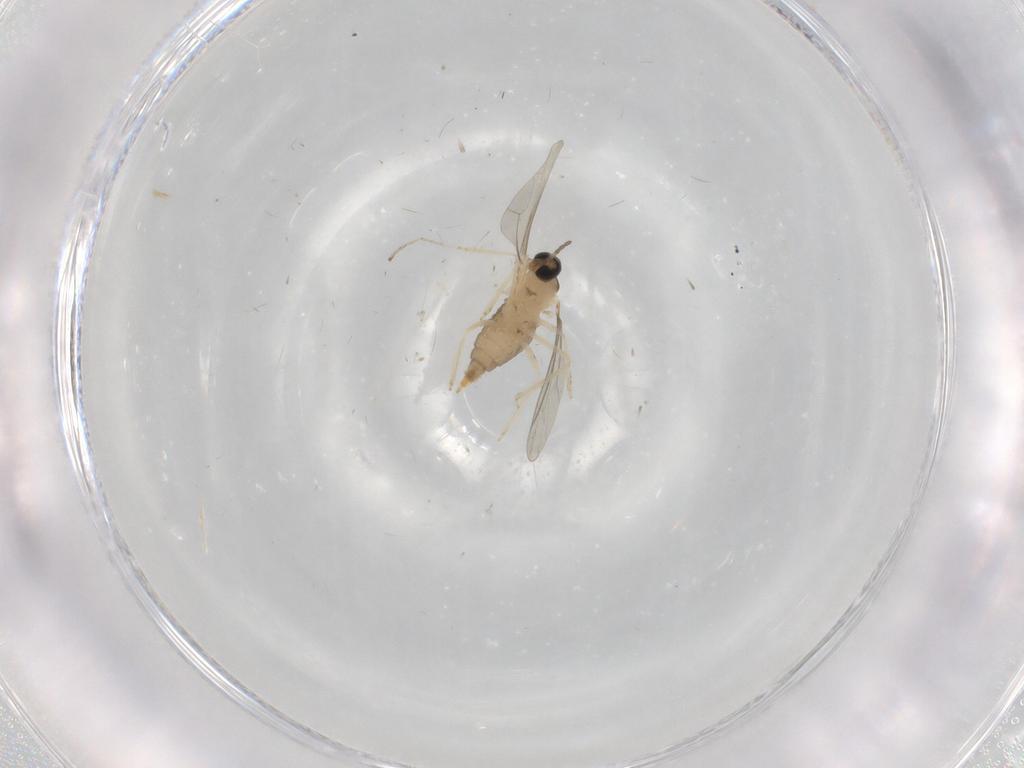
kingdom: Animalia
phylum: Arthropoda
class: Insecta
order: Diptera
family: Cecidomyiidae
